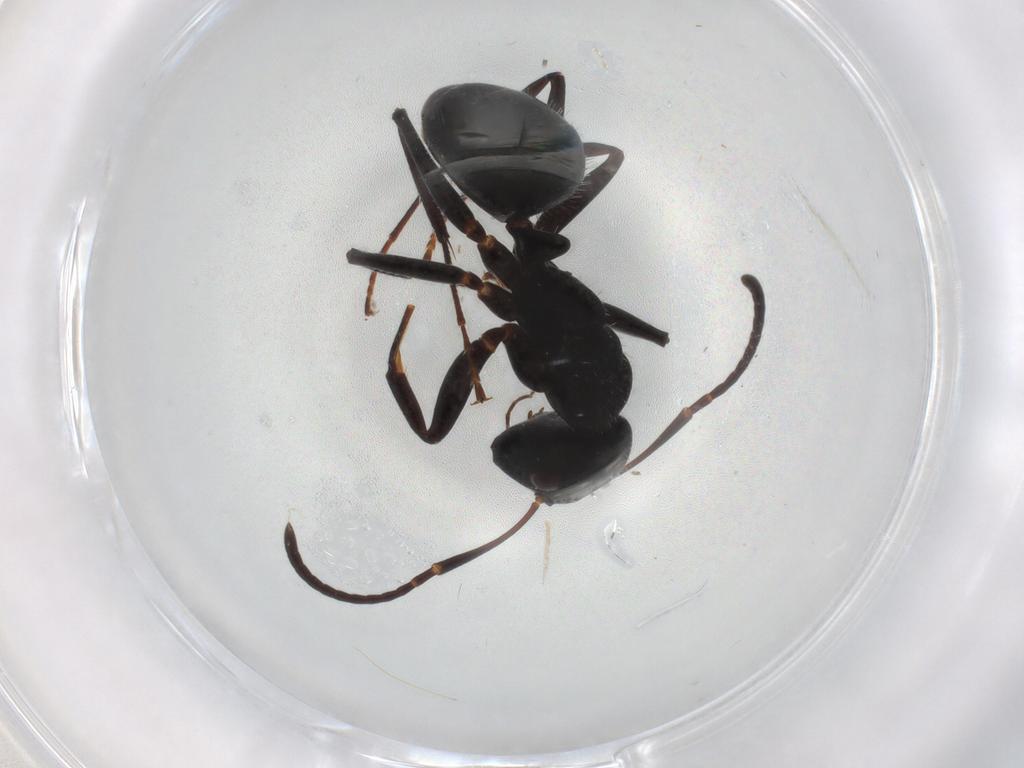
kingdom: Animalia
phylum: Arthropoda
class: Insecta
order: Hymenoptera
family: Formicidae
